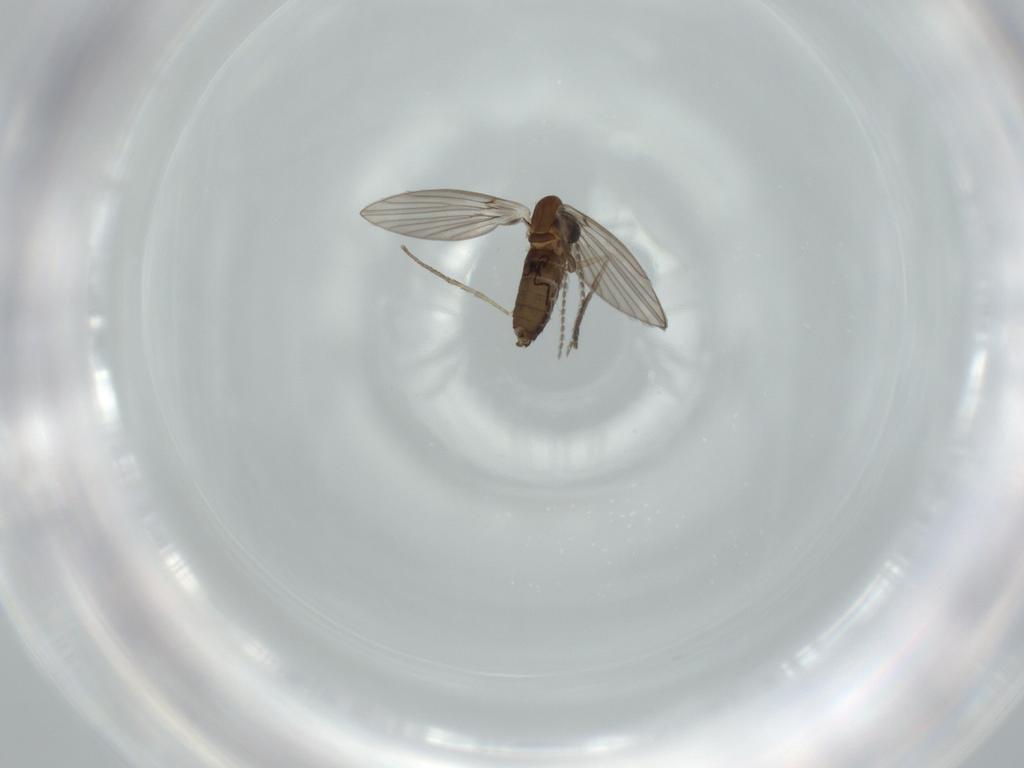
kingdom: Animalia
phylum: Arthropoda
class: Insecta
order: Diptera
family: Psychodidae
